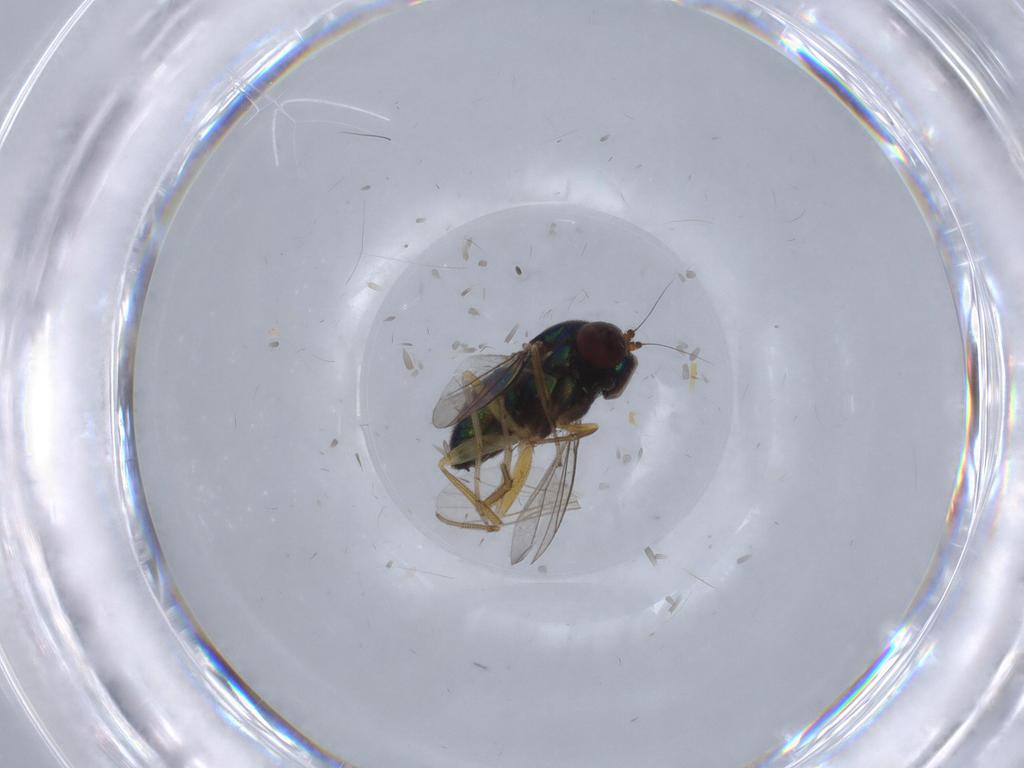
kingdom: Animalia
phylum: Arthropoda
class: Insecta
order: Diptera
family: Dolichopodidae
